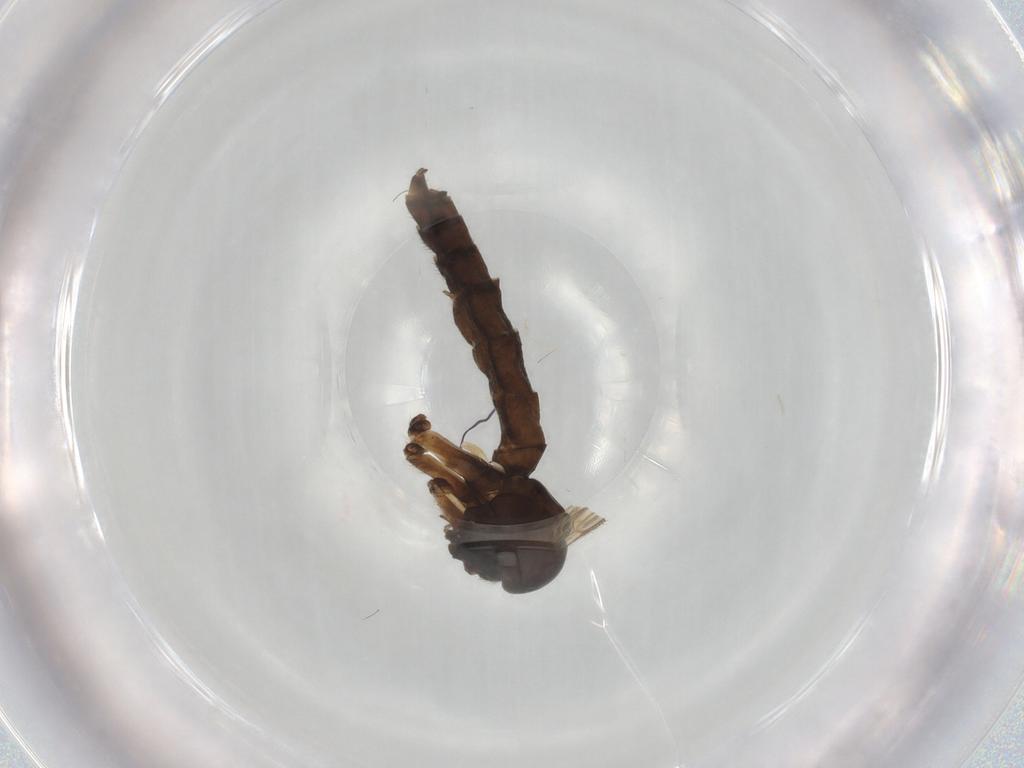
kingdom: Animalia
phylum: Arthropoda
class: Insecta
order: Diptera
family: Mycetophilidae
